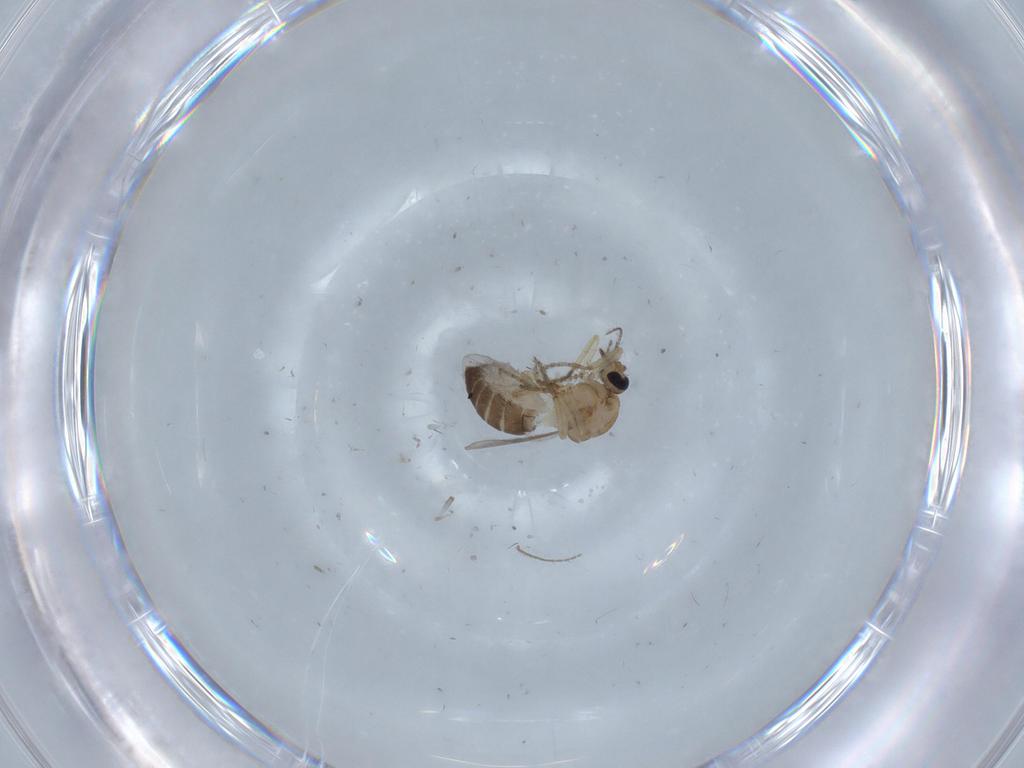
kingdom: Animalia
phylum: Arthropoda
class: Insecta
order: Diptera
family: Ceratopogonidae
